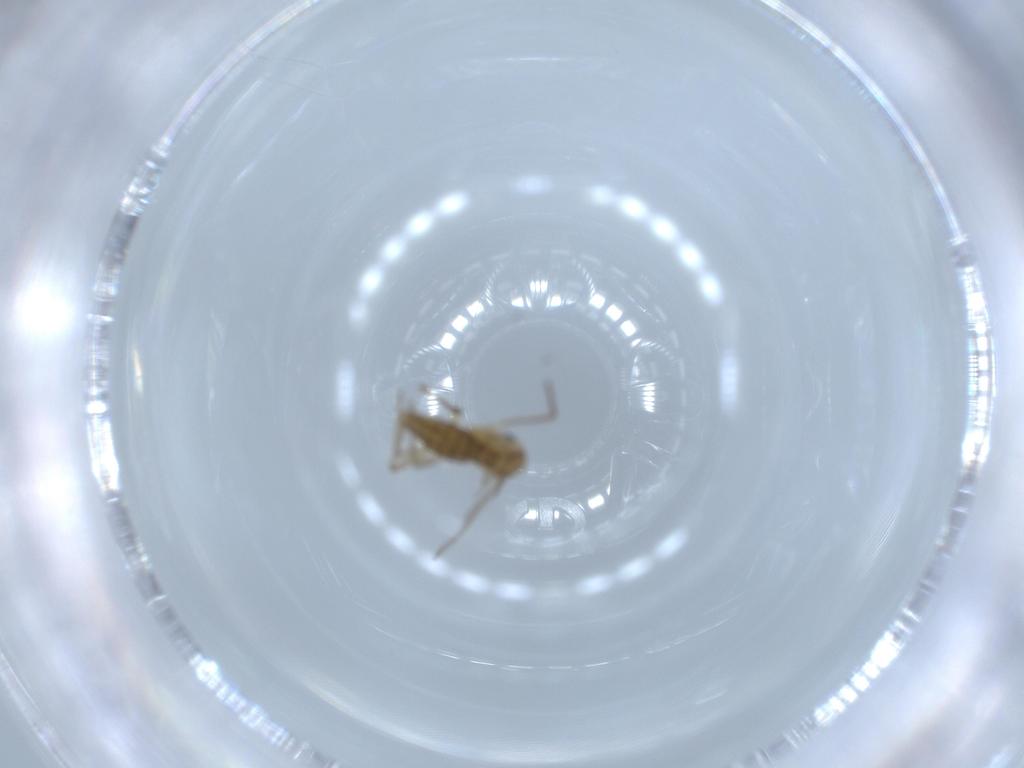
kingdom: Animalia
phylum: Arthropoda
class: Insecta
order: Diptera
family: Chironomidae
